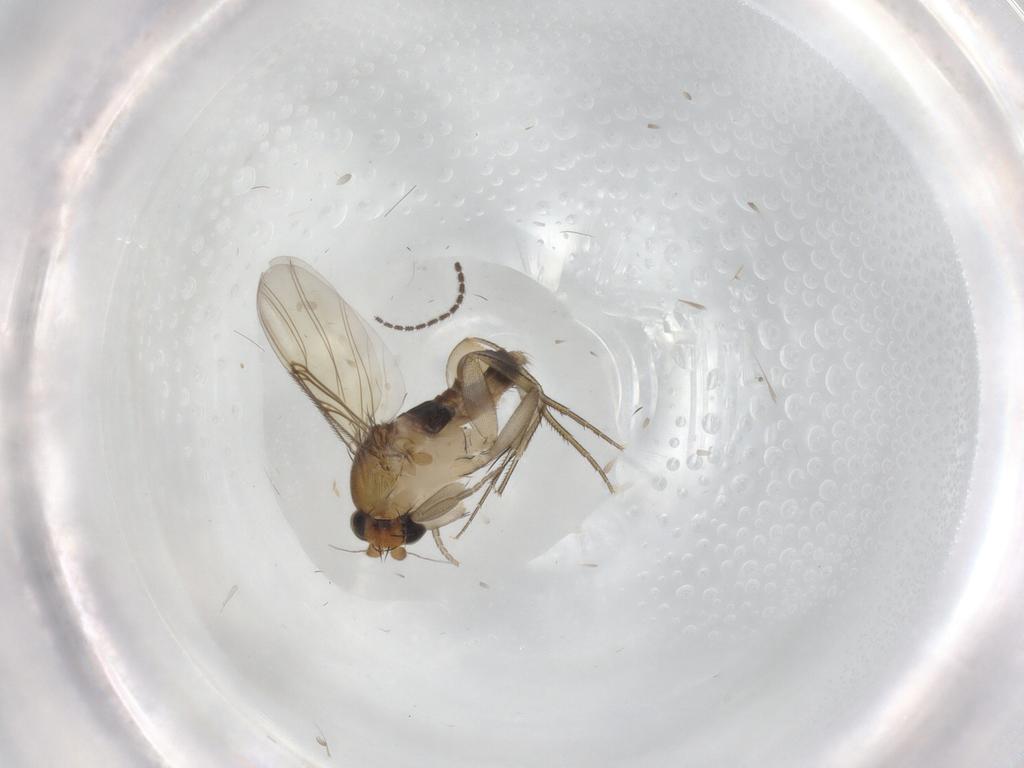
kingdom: Animalia
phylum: Arthropoda
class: Insecta
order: Diptera
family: Phoridae
